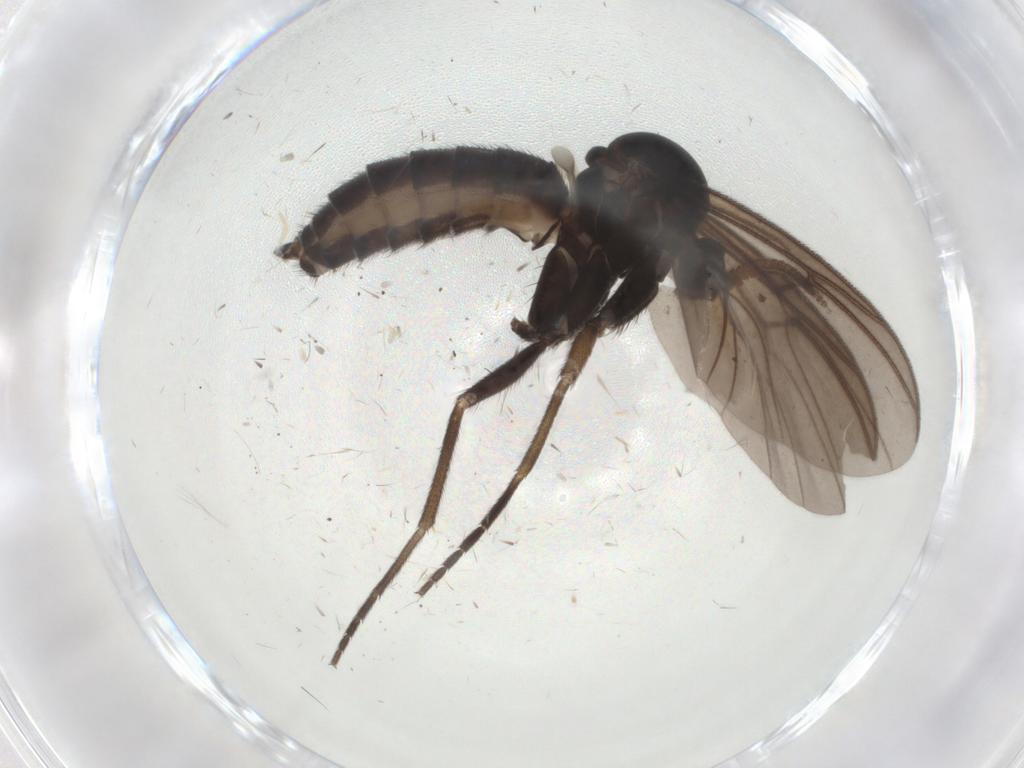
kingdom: Animalia
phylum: Arthropoda
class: Insecta
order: Diptera
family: Mycetophilidae
